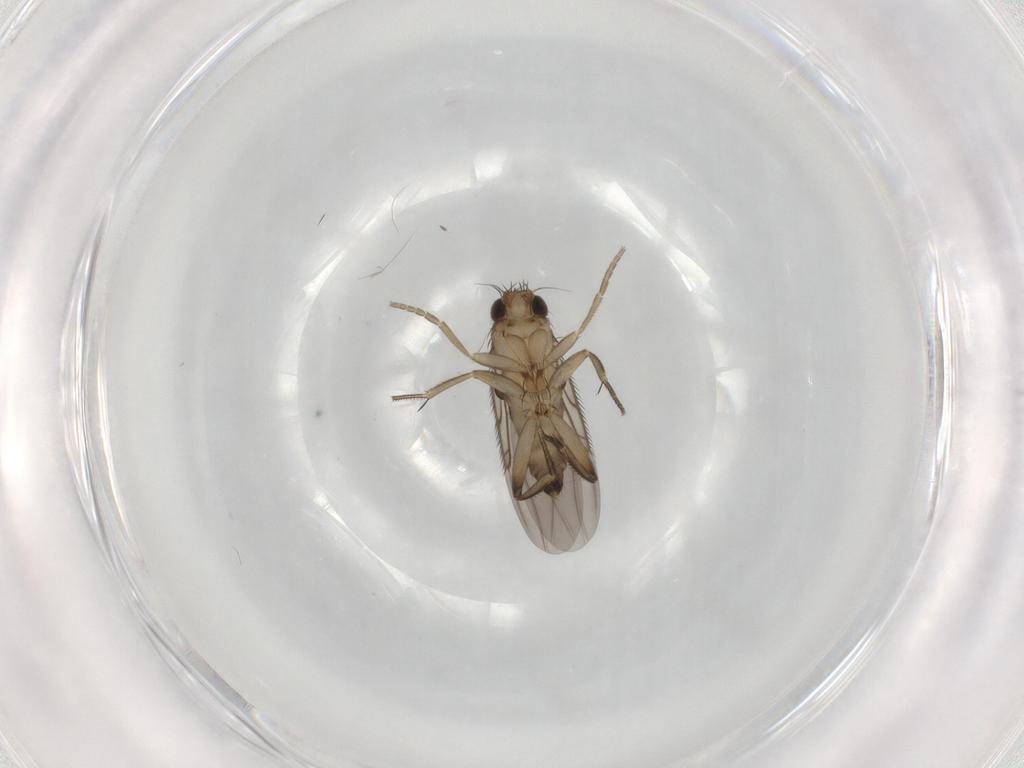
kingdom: Animalia
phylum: Arthropoda
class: Insecta
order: Diptera
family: Phoridae
